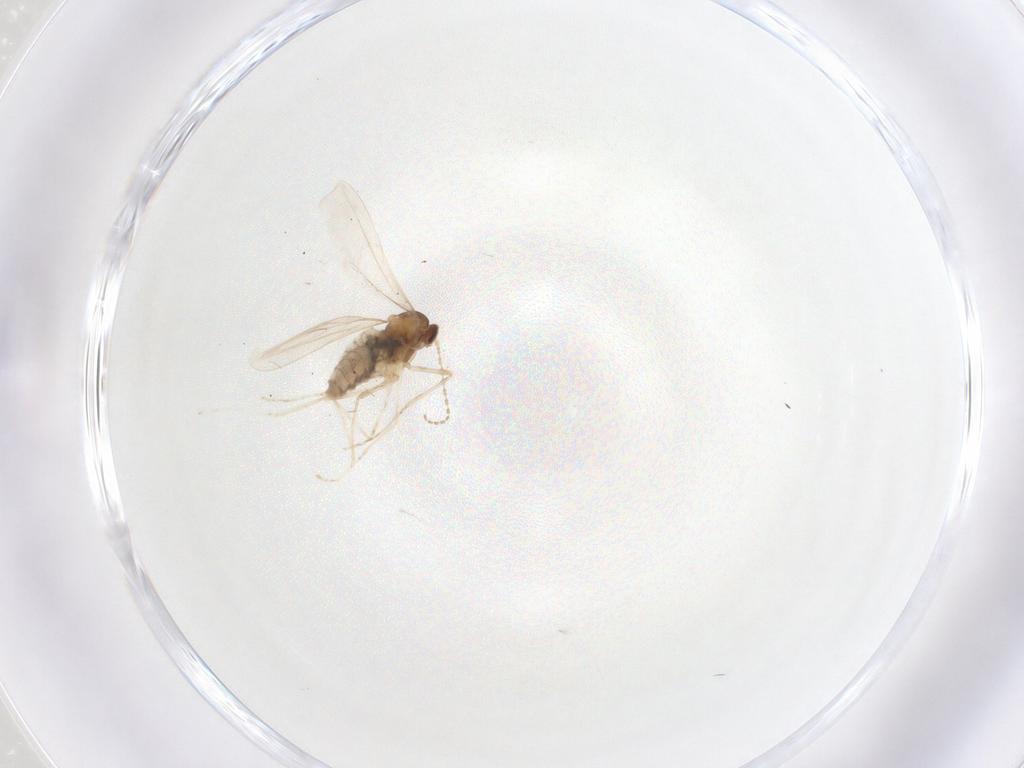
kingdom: Animalia
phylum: Arthropoda
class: Insecta
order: Diptera
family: Cecidomyiidae
